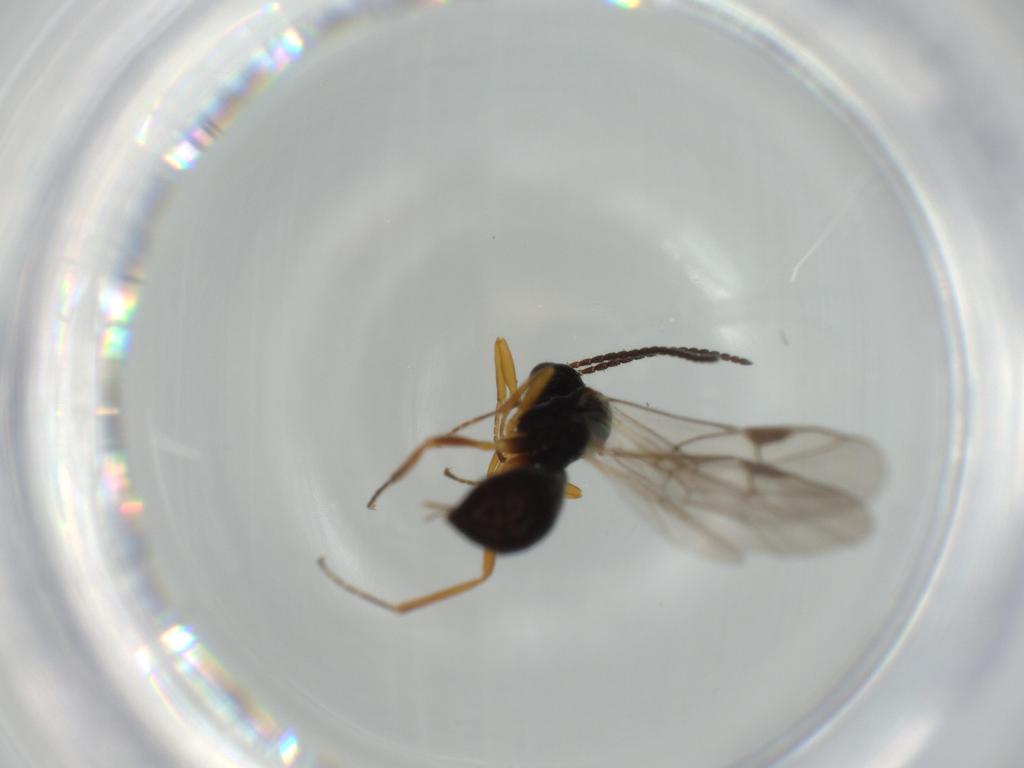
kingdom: Animalia
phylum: Arthropoda
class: Insecta
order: Hymenoptera
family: Ichneumonidae
